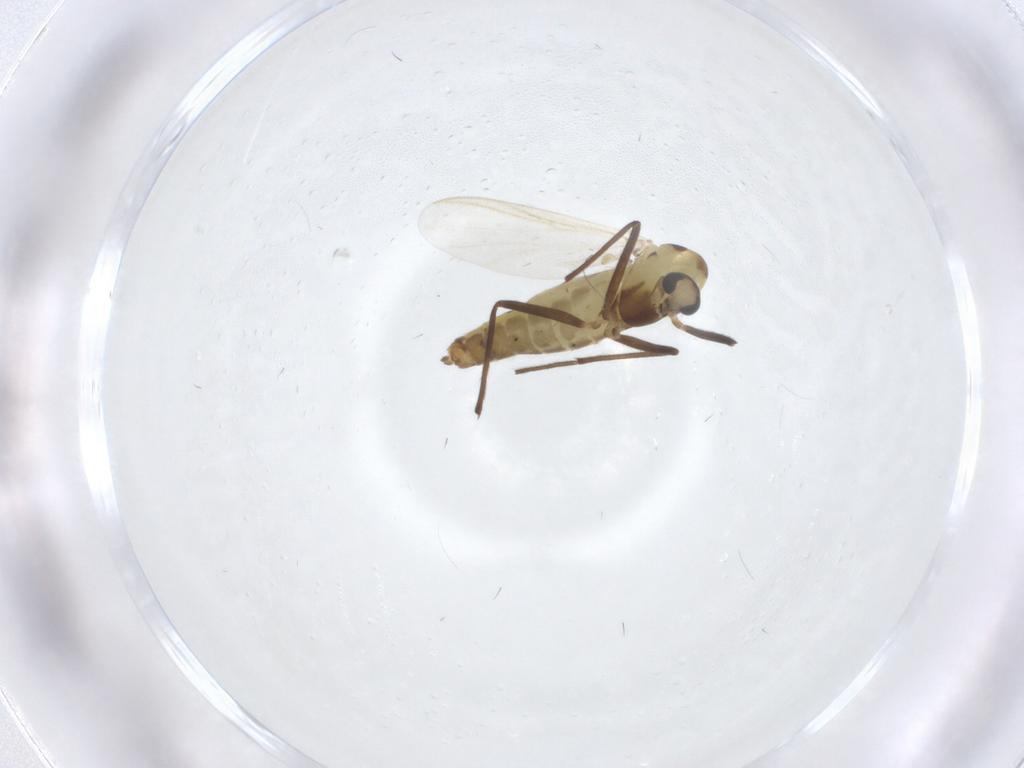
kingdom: Animalia
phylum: Arthropoda
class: Insecta
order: Diptera
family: Chironomidae
